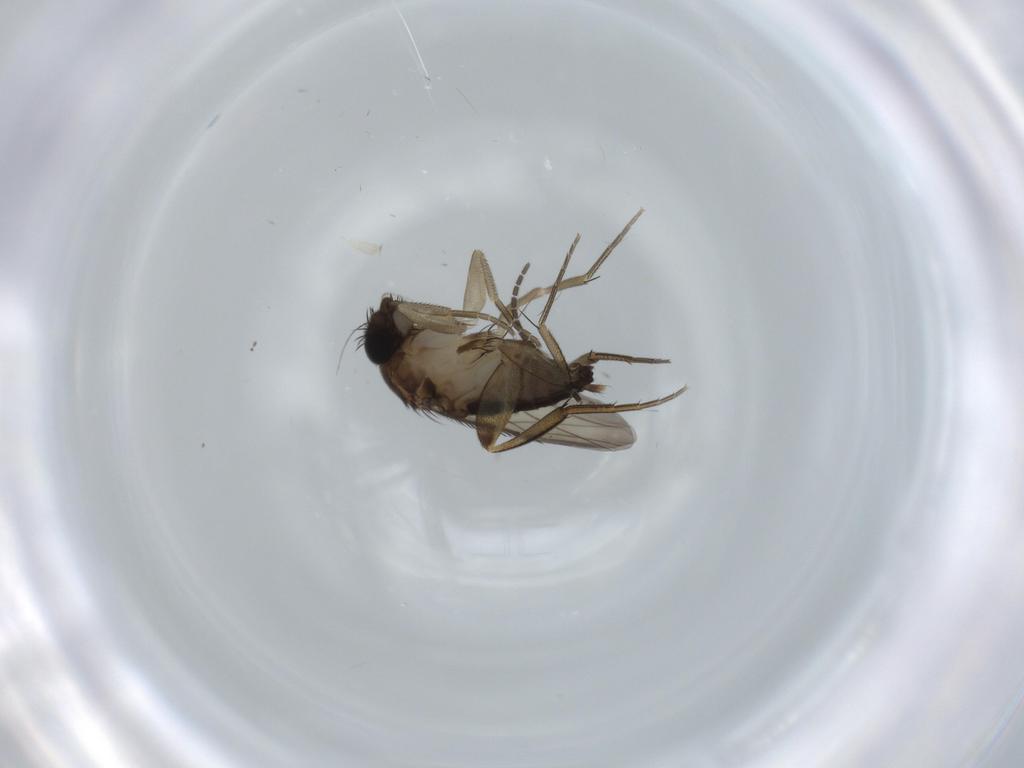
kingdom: Animalia
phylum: Arthropoda
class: Insecta
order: Diptera
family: Phoridae
